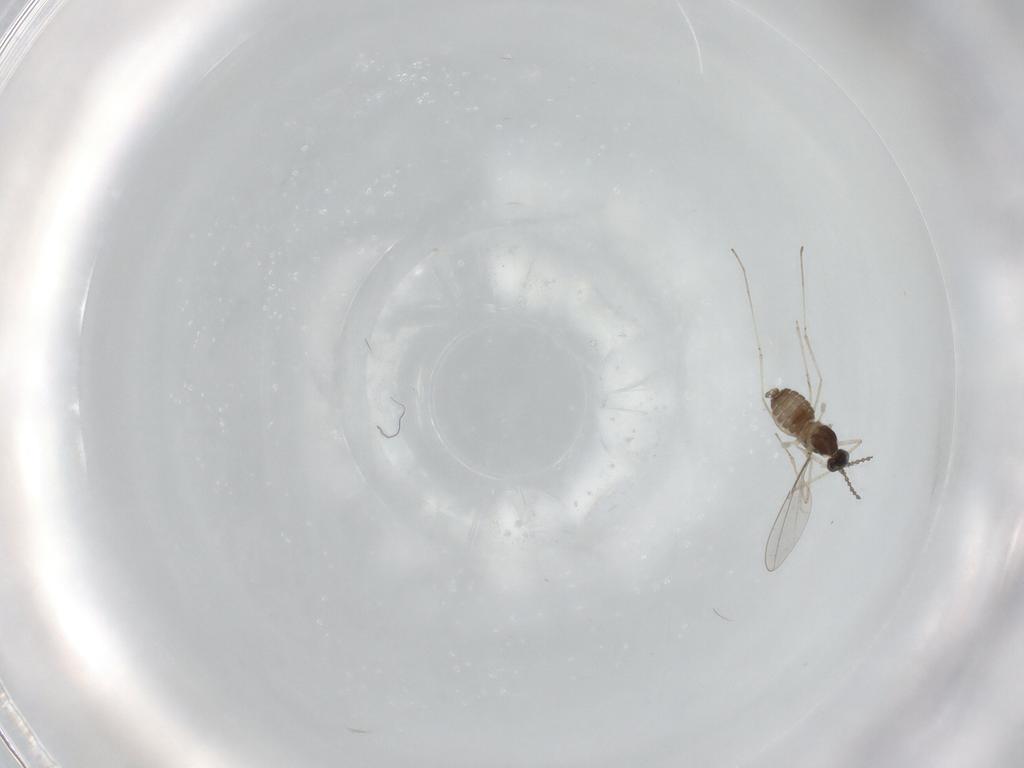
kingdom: Animalia
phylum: Arthropoda
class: Insecta
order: Diptera
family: Cecidomyiidae
